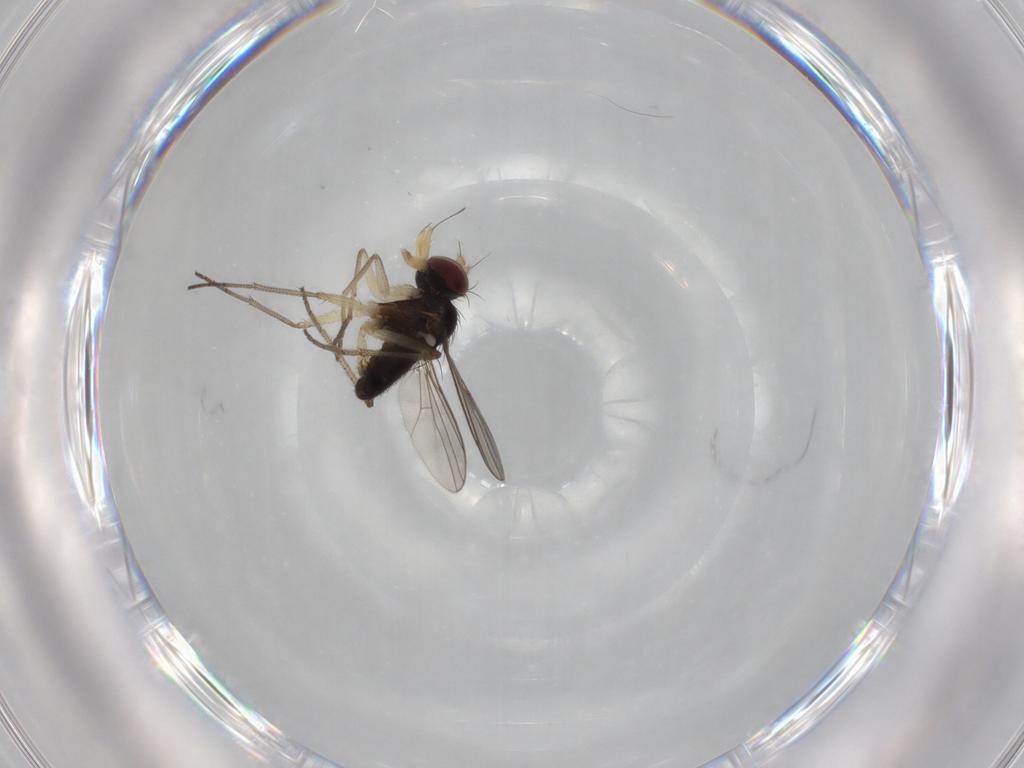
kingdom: Animalia
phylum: Arthropoda
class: Insecta
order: Diptera
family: Dolichopodidae
